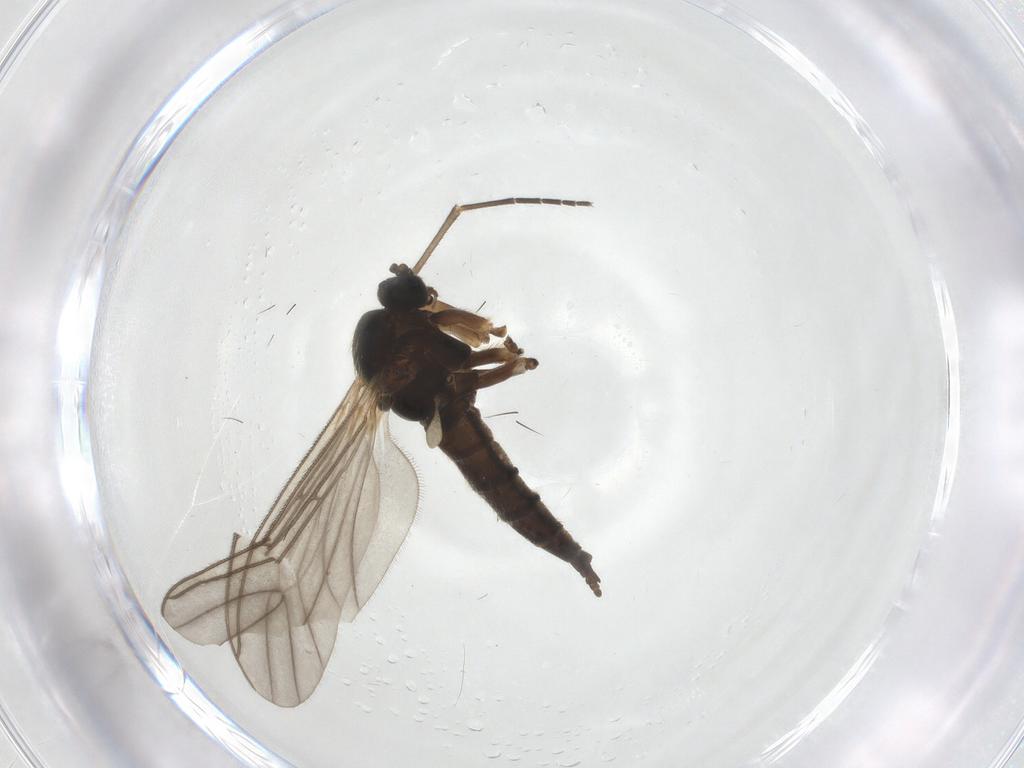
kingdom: Animalia
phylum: Arthropoda
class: Insecta
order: Diptera
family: Sciaridae
